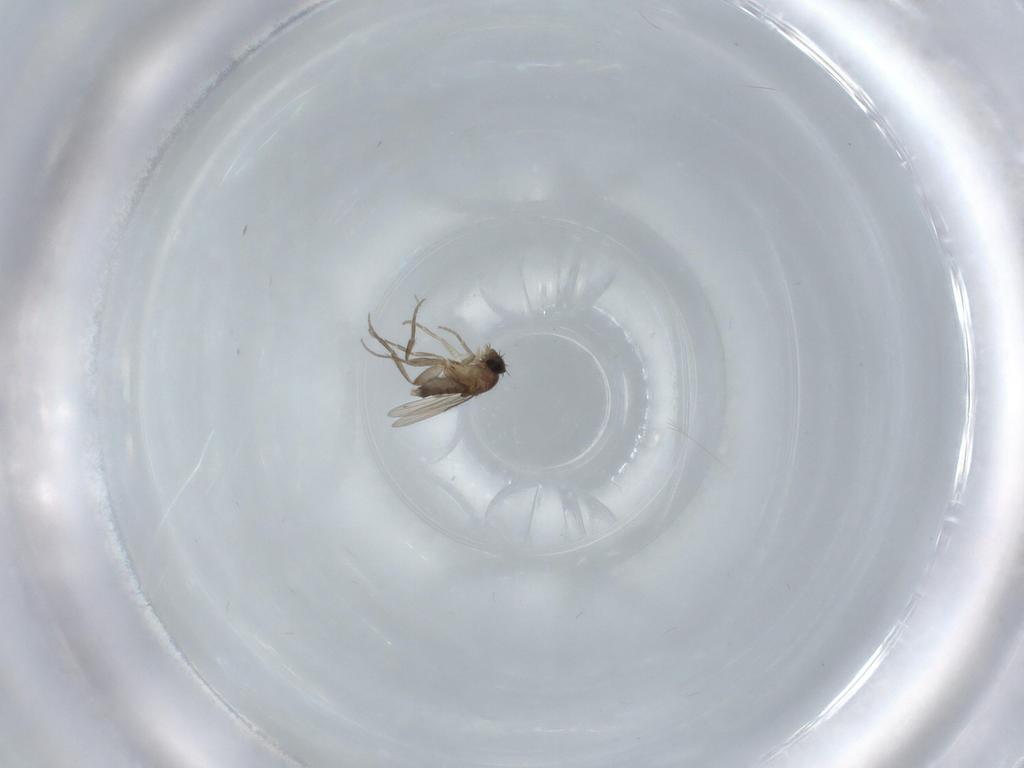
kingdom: Animalia
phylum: Arthropoda
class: Insecta
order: Diptera
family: Phoridae
